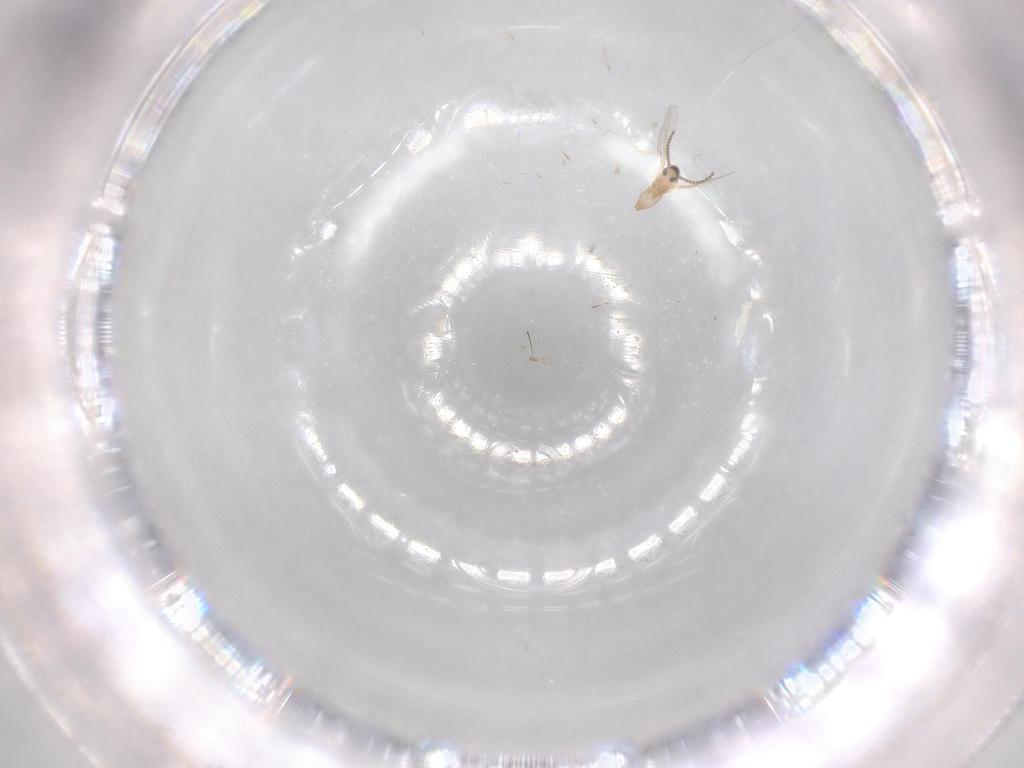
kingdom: Animalia
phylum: Arthropoda
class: Insecta
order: Diptera
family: Cecidomyiidae
